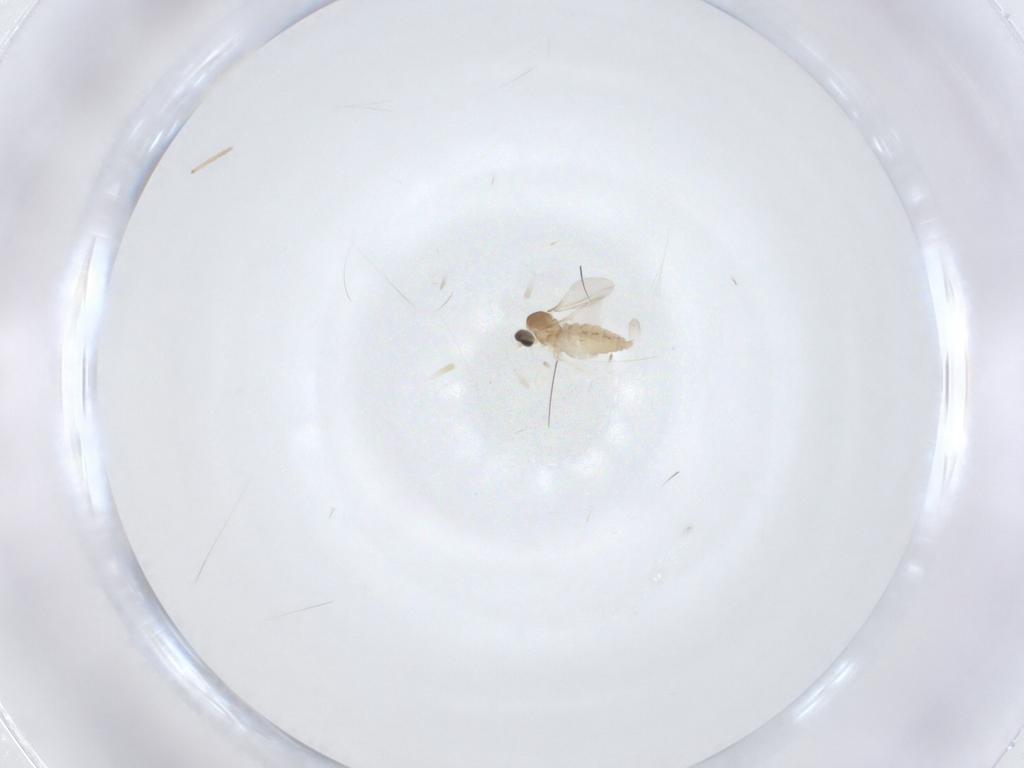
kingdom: Animalia
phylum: Arthropoda
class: Insecta
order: Diptera
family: Cecidomyiidae
